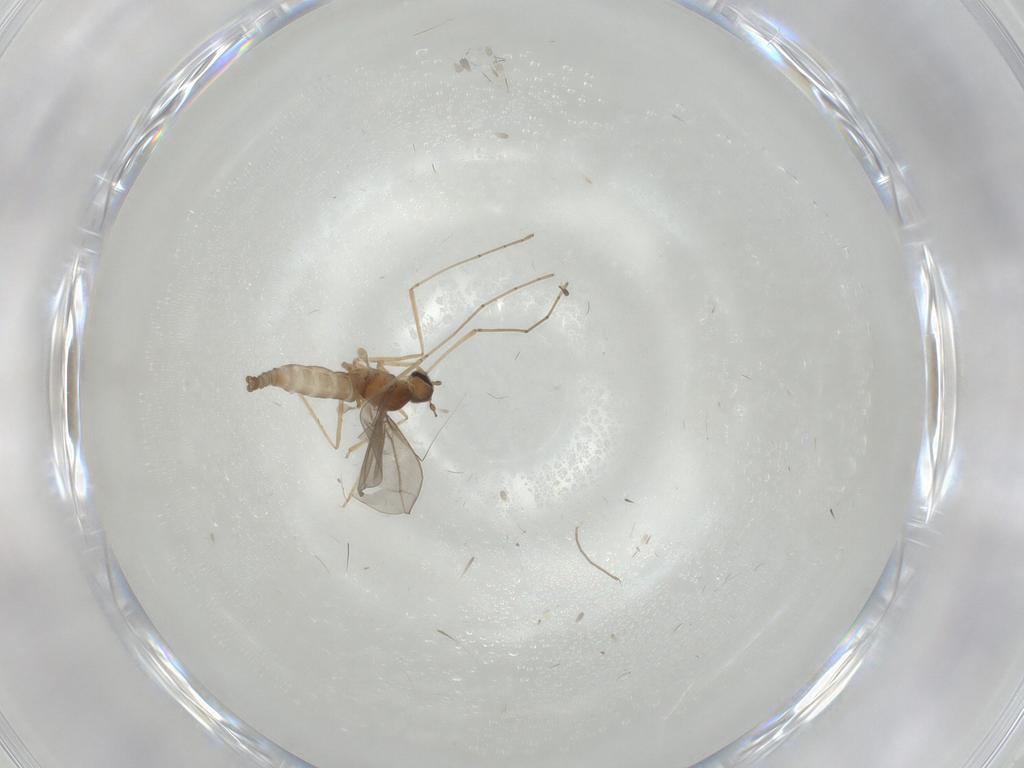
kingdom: Animalia
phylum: Arthropoda
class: Insecta
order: Diptera
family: Cecidomyiidae
